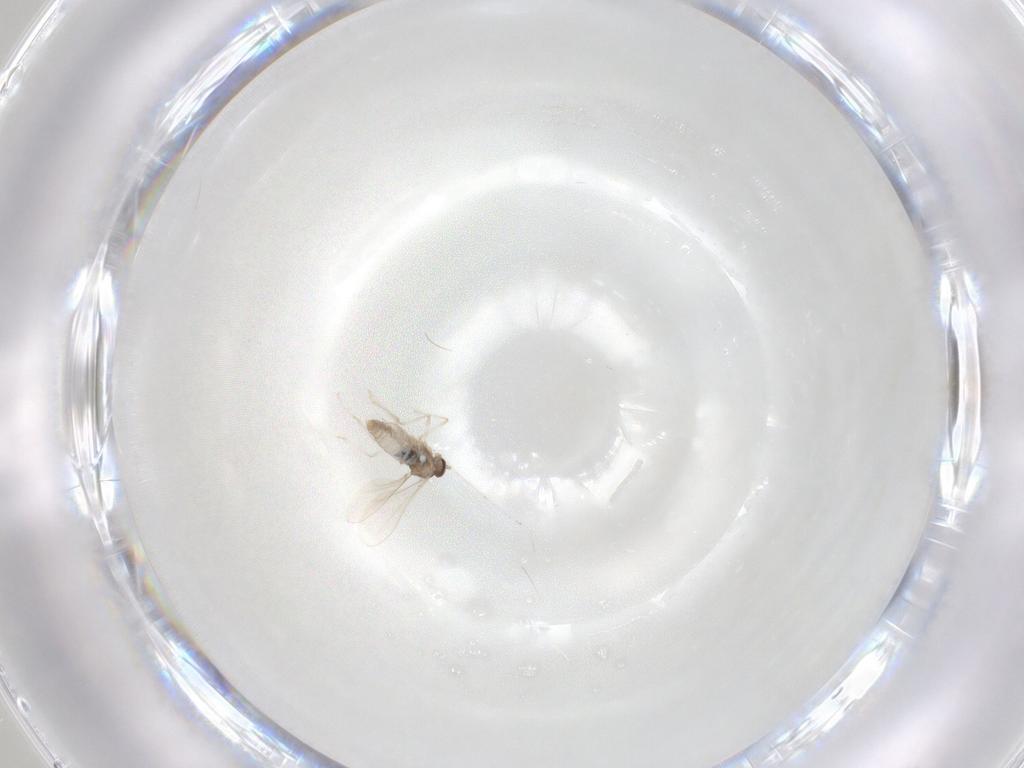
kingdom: Animalia
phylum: Arthropoda
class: Insecta
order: Diptera
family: Cecidomyiidae
